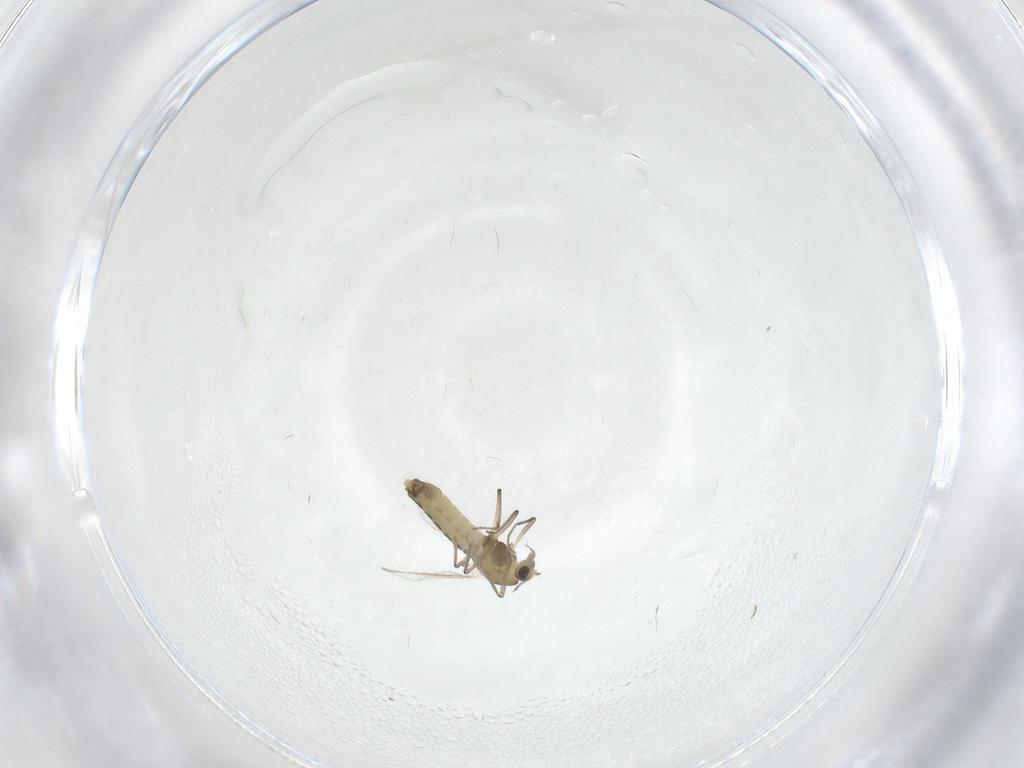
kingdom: Animalia
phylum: Arthropoda
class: Insecta
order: Diptera
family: Chironomidae
